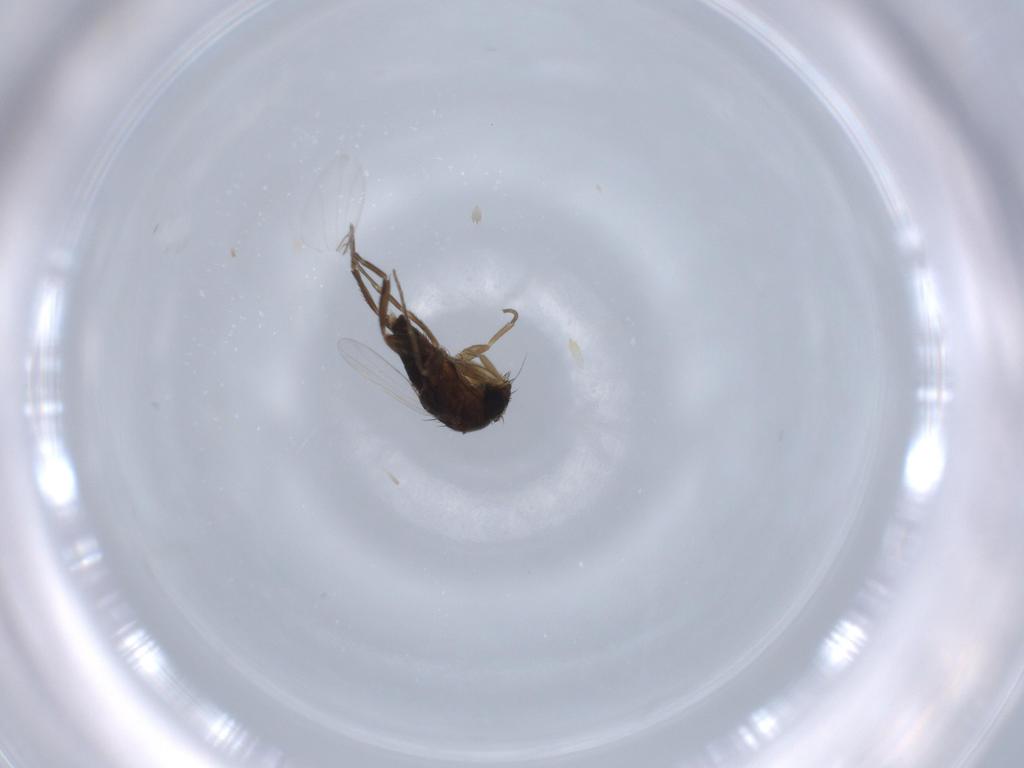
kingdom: Animalia
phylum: Arthropoda
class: Insecta
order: Diptera
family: Phoridae
